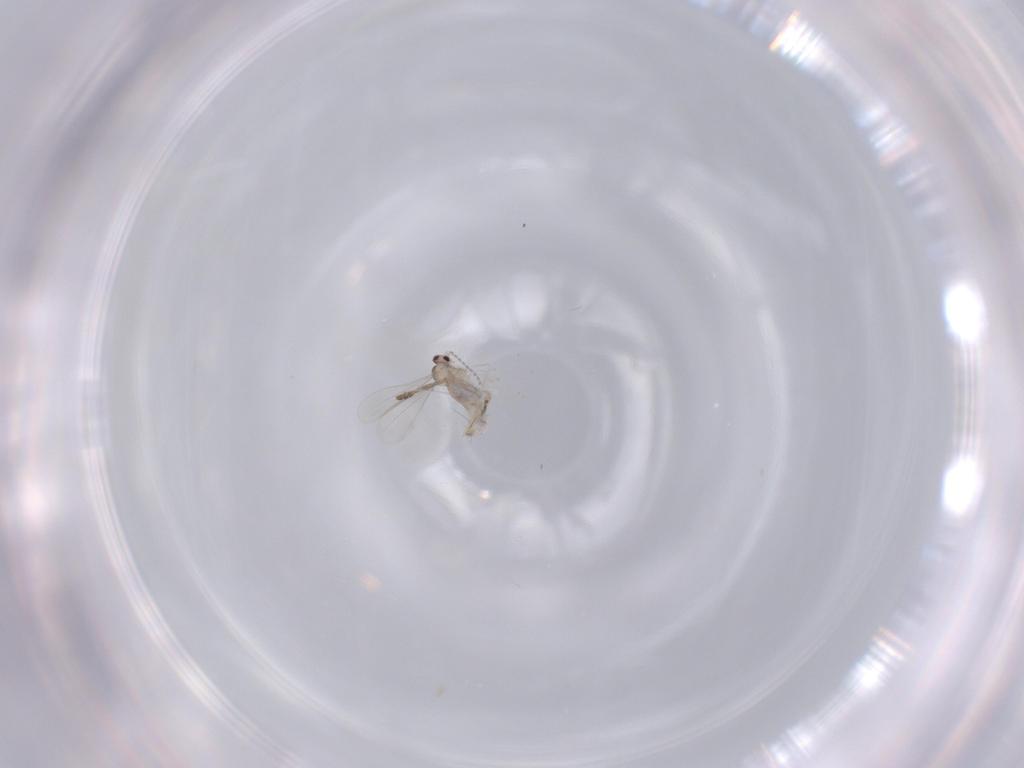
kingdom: Animalia
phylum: Arthropoda
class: Insecta
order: Diptera
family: Cecidomyiidae
